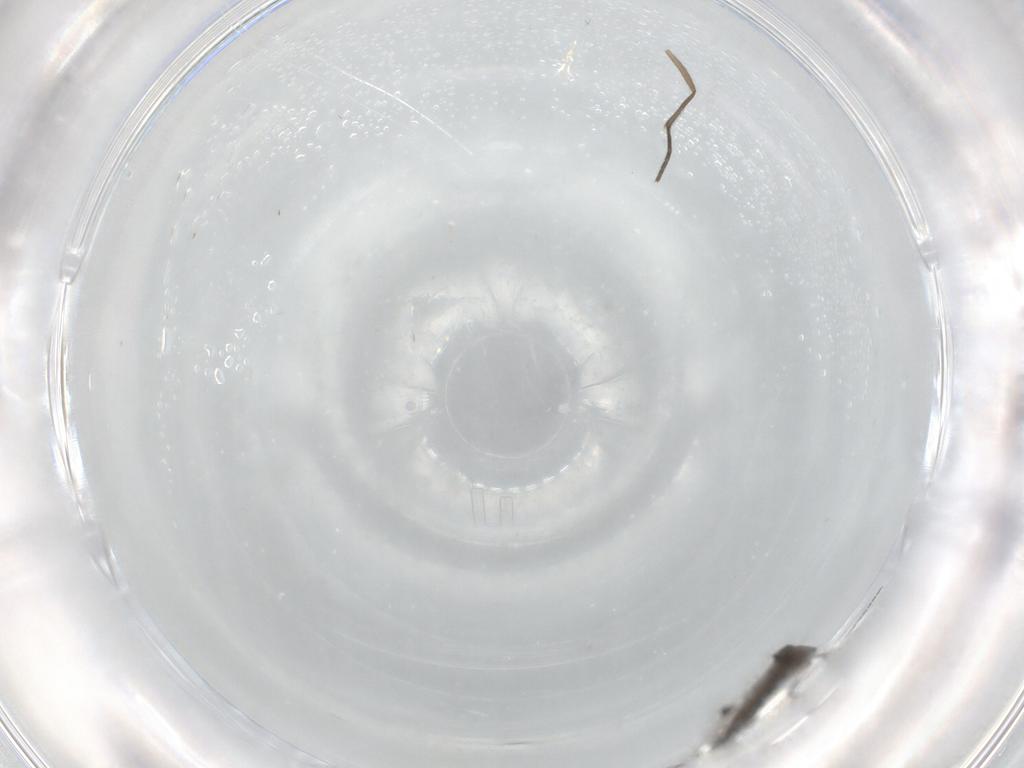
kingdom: Animalia
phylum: Arthropoda
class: Insecta
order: Diptera
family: Sciaridae
